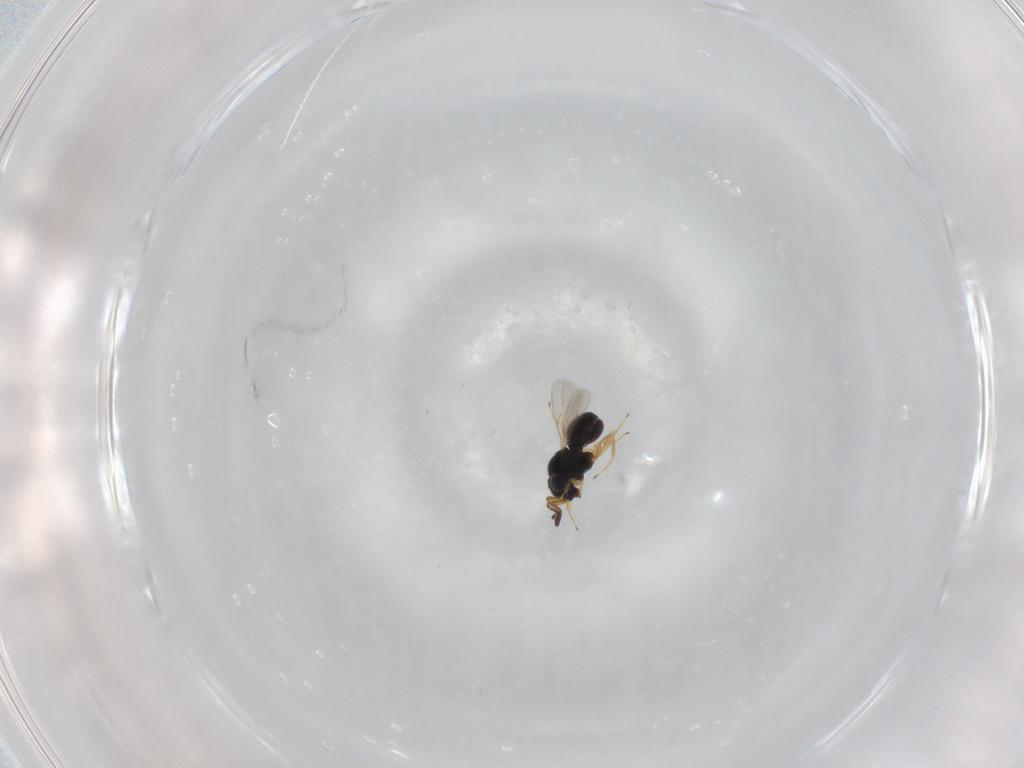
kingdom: Animalia
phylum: Arthropoda
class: Insecta
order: Hymenoptera
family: Scelionidae
